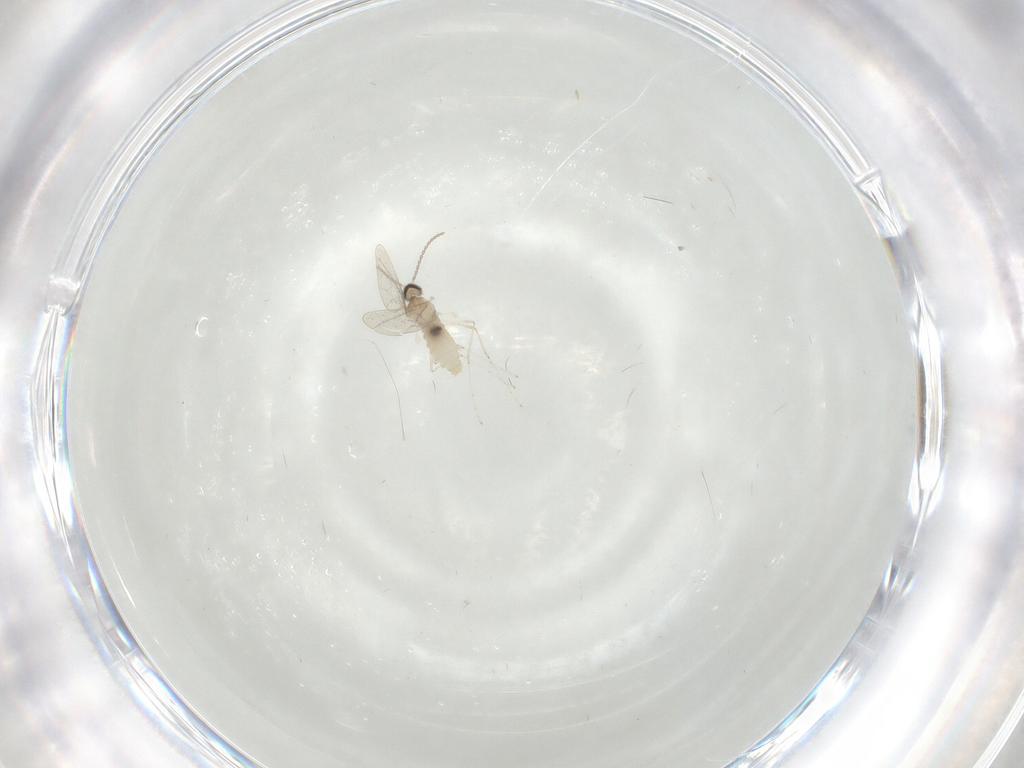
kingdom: Animalia
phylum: Arthropoda
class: Insecta
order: Diptera
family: Cecidomyiidae
